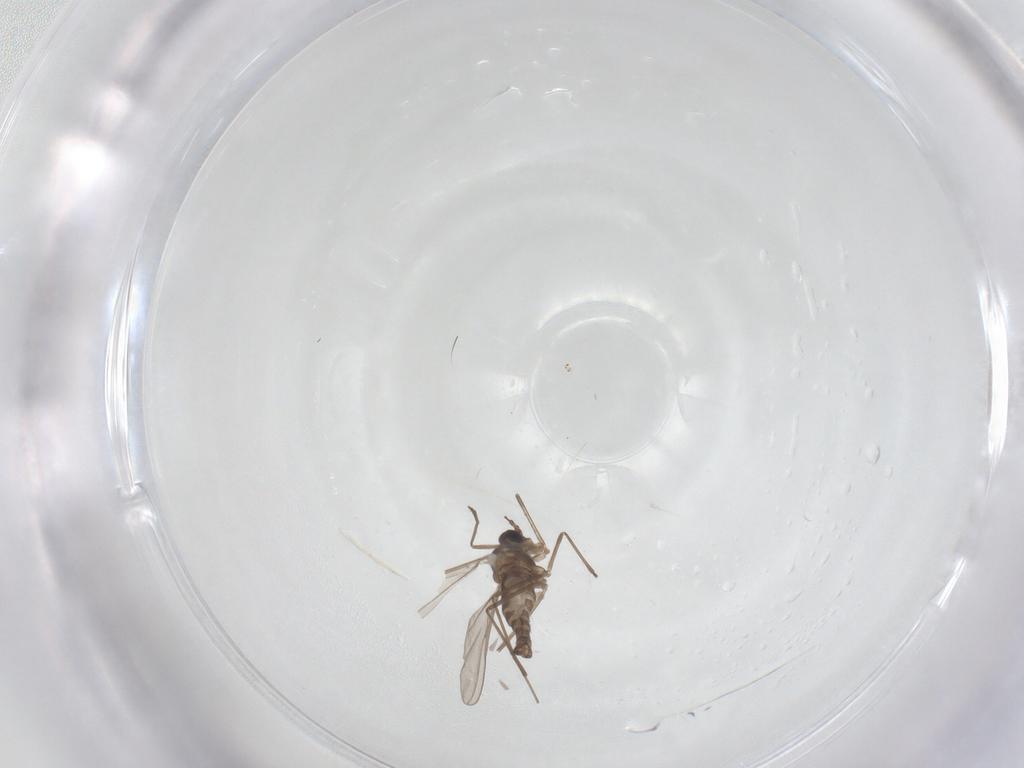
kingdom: Animalia
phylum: Arthropoda
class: Insecta
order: Diptera
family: Cecidomyiidae
